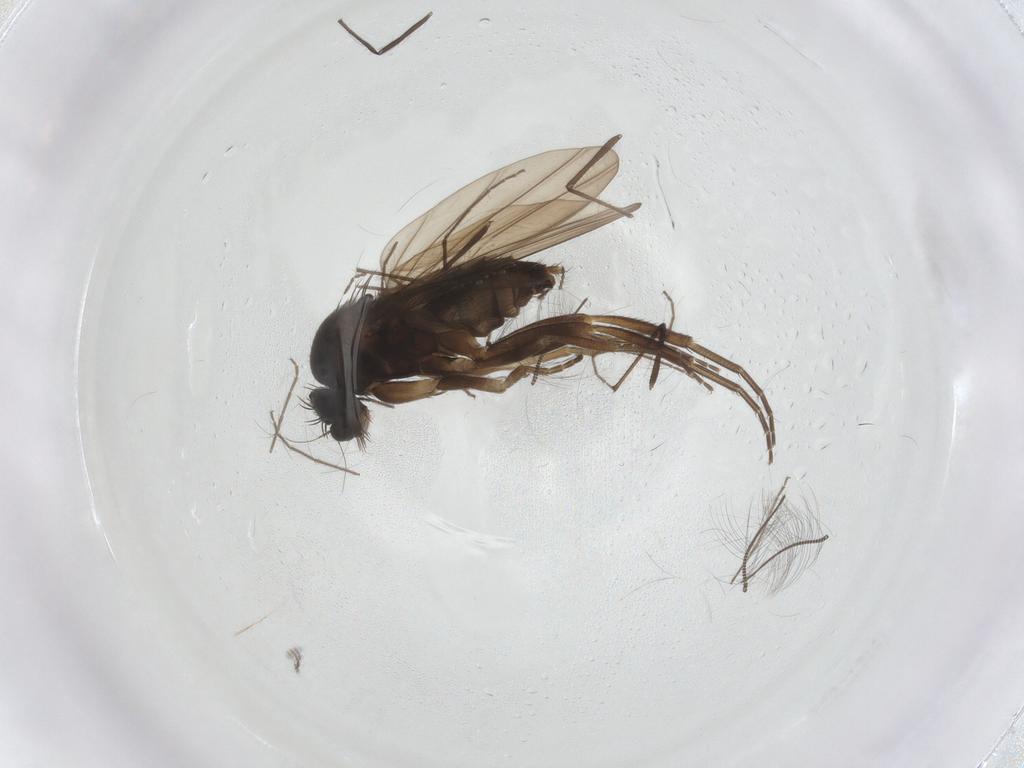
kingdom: Animalia
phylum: Arthropoda
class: Insecta
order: Diptera
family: Phoridae
